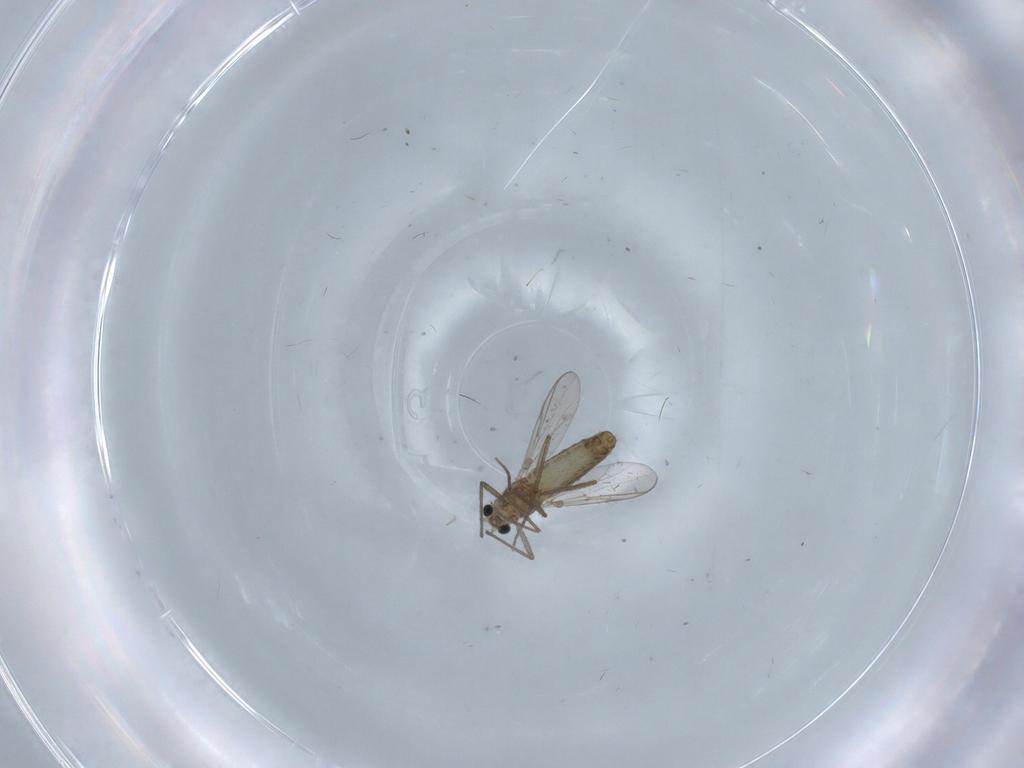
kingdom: Animalia
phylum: Arthropoda
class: Insecta
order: Diptera
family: Chironomidae
